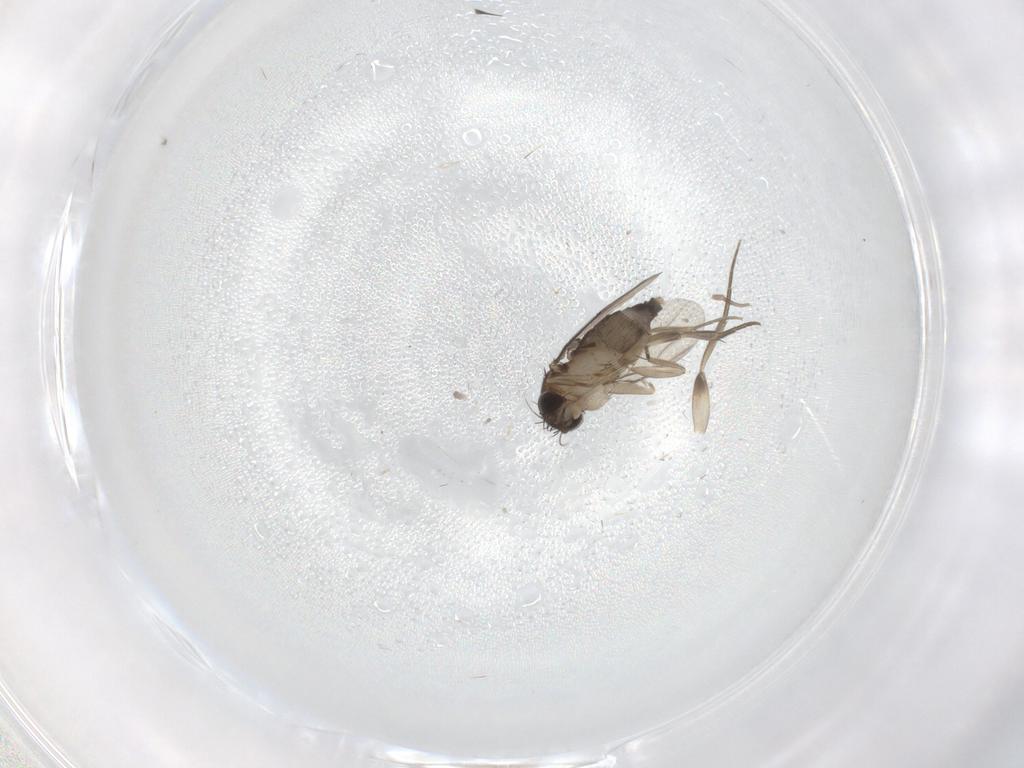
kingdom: Animalia
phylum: Arthropoda
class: Insecta
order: Diptera
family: Phoridae
